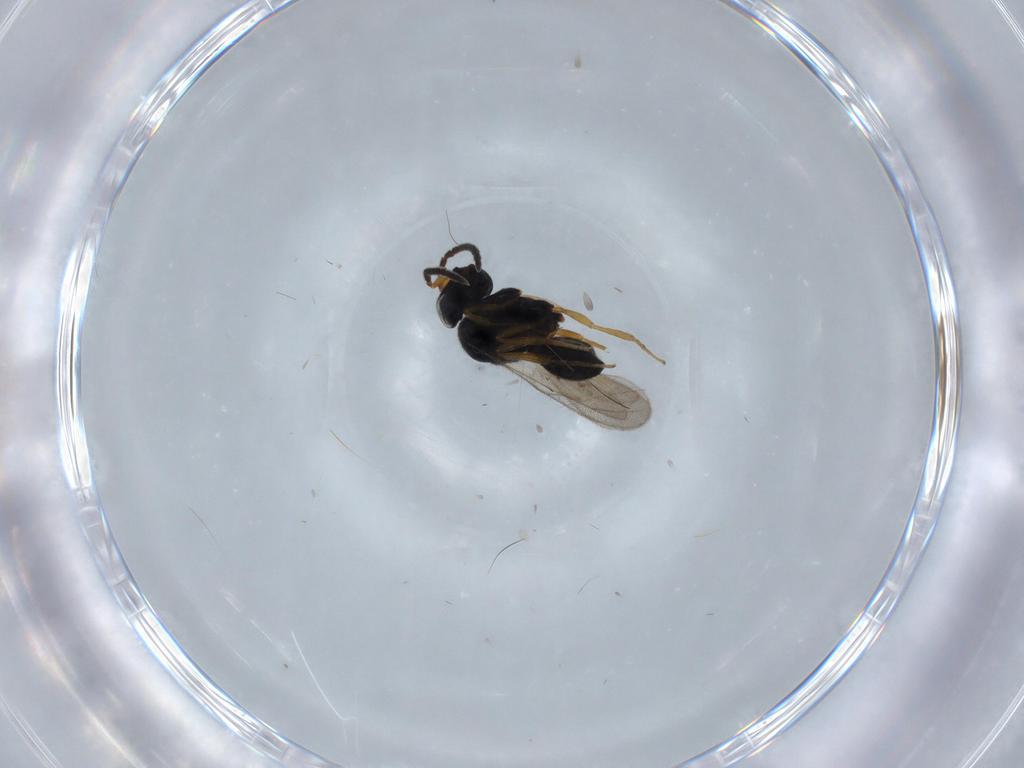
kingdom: Animalia
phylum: Arthropoda
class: Insecta
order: Hymenoptera
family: Scelionidae
